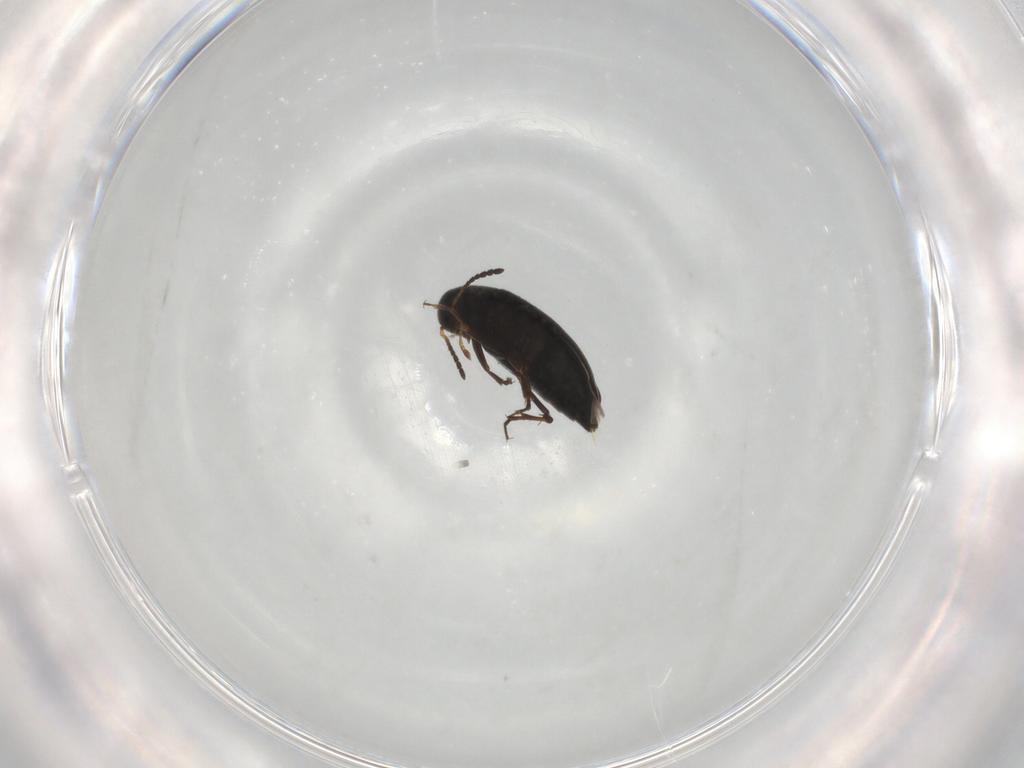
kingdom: Animalia
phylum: Arthropoda
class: Insecta
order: Coleoptera
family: Scraptiidae
